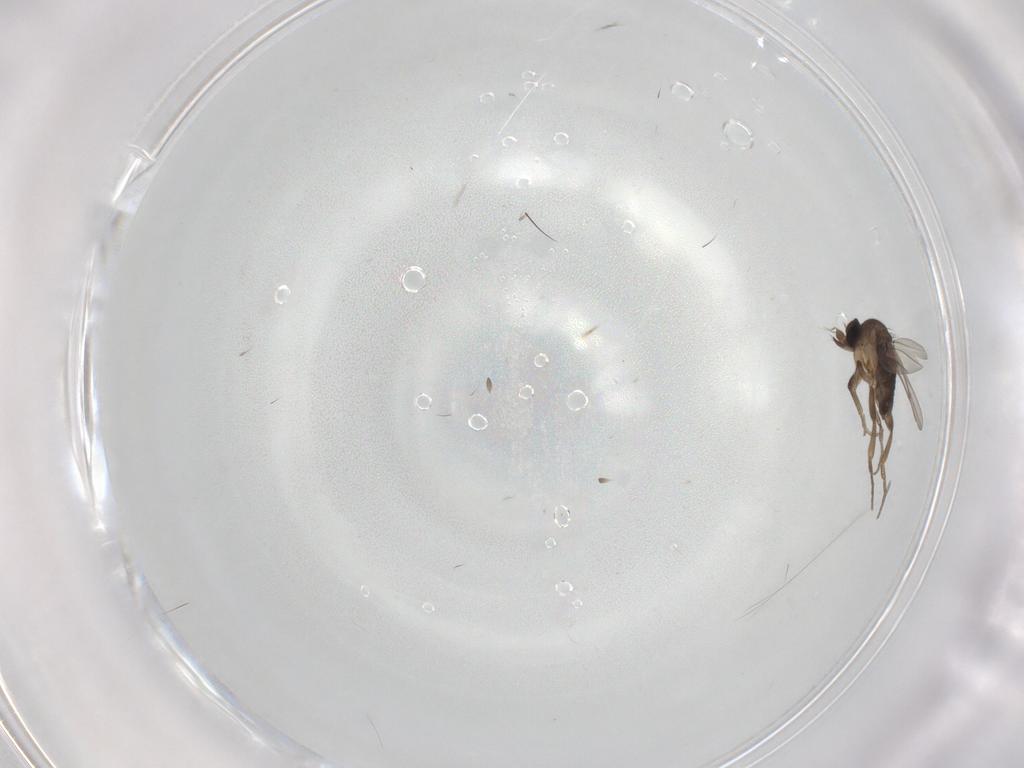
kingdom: Animalia
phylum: Arthropoda
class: Insecta
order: Diptera
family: Phoridae
